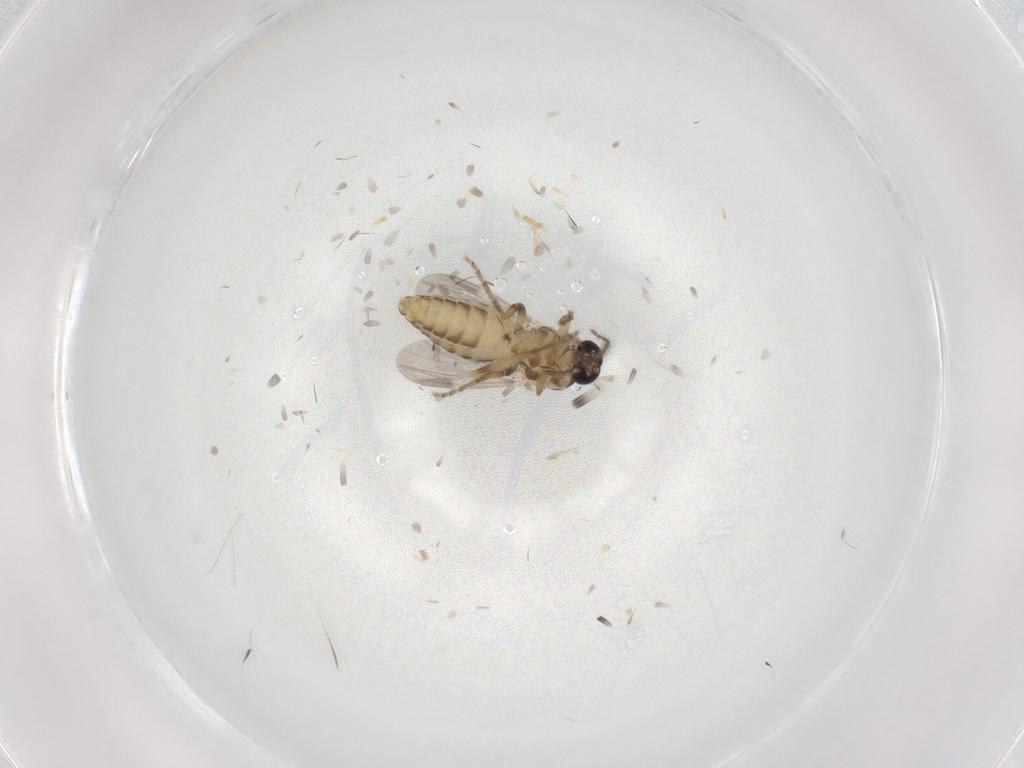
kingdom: Animalia
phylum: Arthropoda
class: Insecta
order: Diptera
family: Ceratopogonidae
